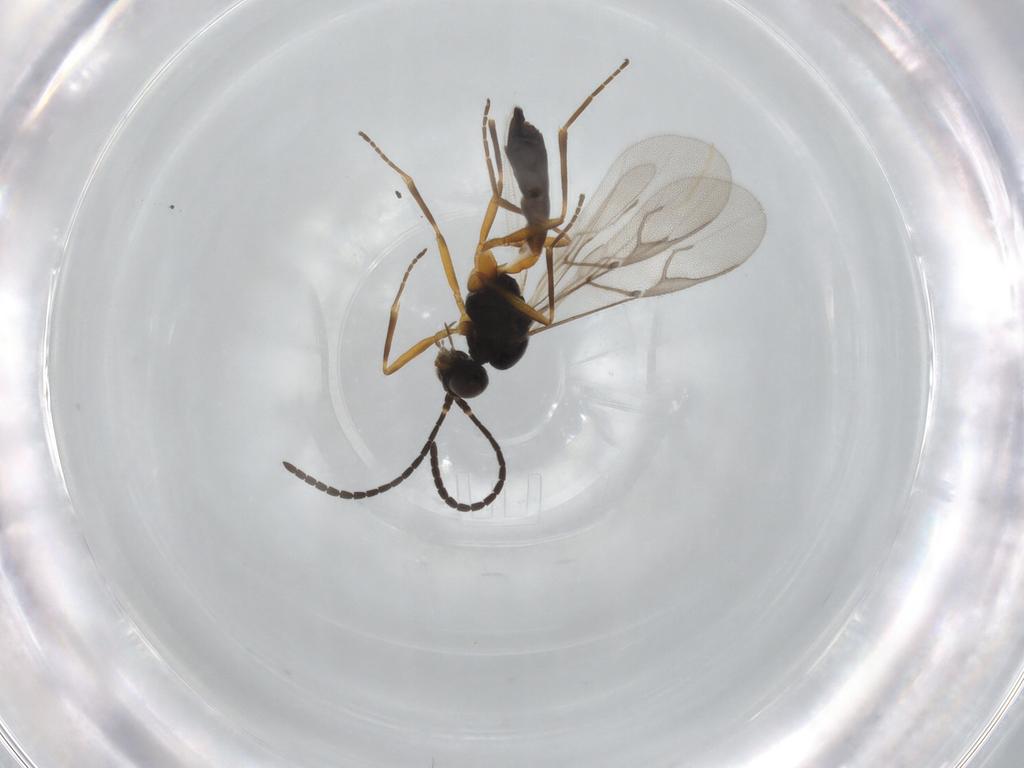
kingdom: Animalia
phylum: Arthropoda
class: Insecta
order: Hymenoptera
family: Braconidae
